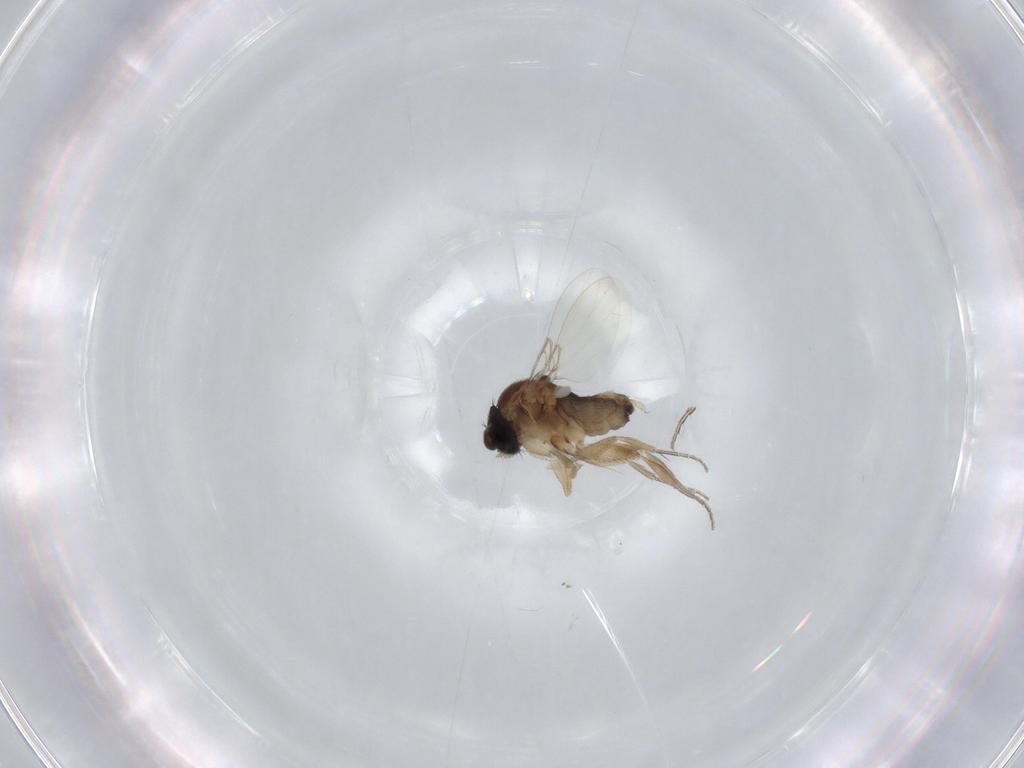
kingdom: Animalia
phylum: Arthropoda
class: Insecta
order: Diptera
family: Phoridae
